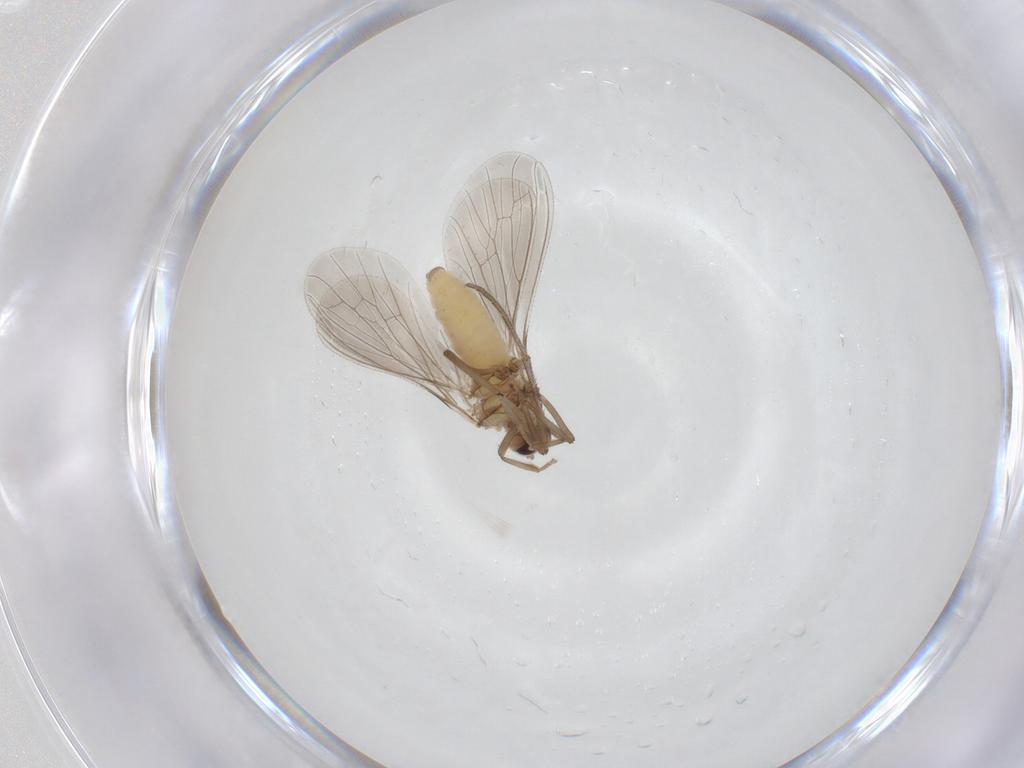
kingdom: Animalia
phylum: Arthropoda
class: Insecta
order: Neuroptera
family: Coniopterygidae
